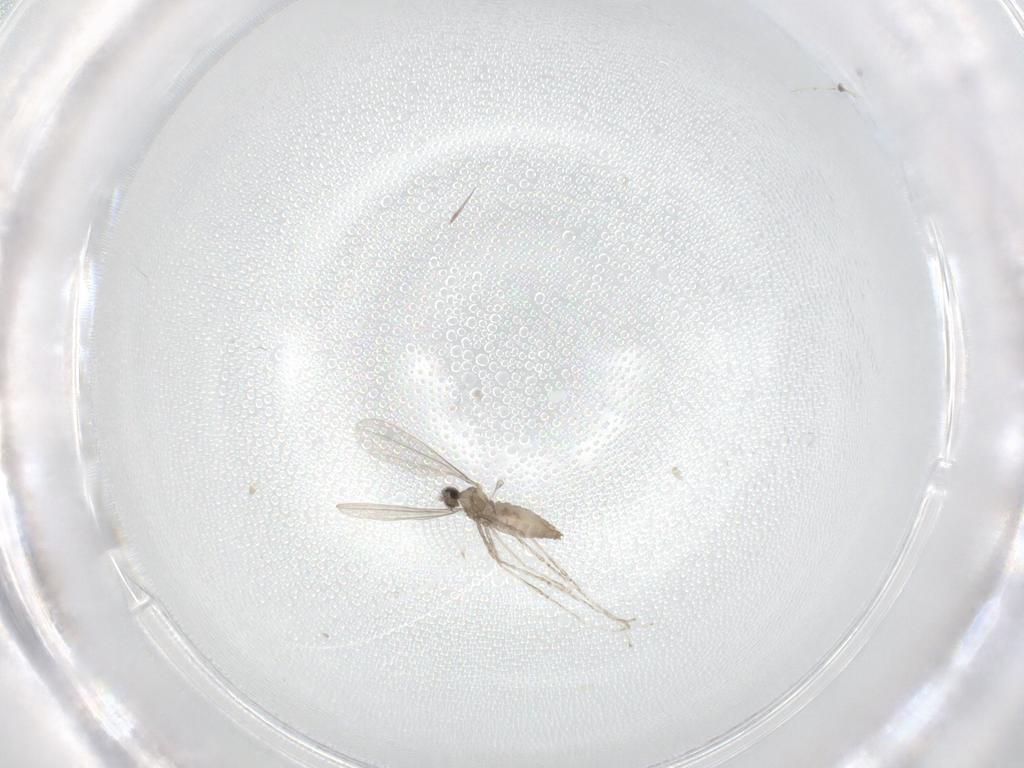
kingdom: Animalia
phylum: Arthropoda
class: Insecta
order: Diptera
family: Cecidomyiidae
